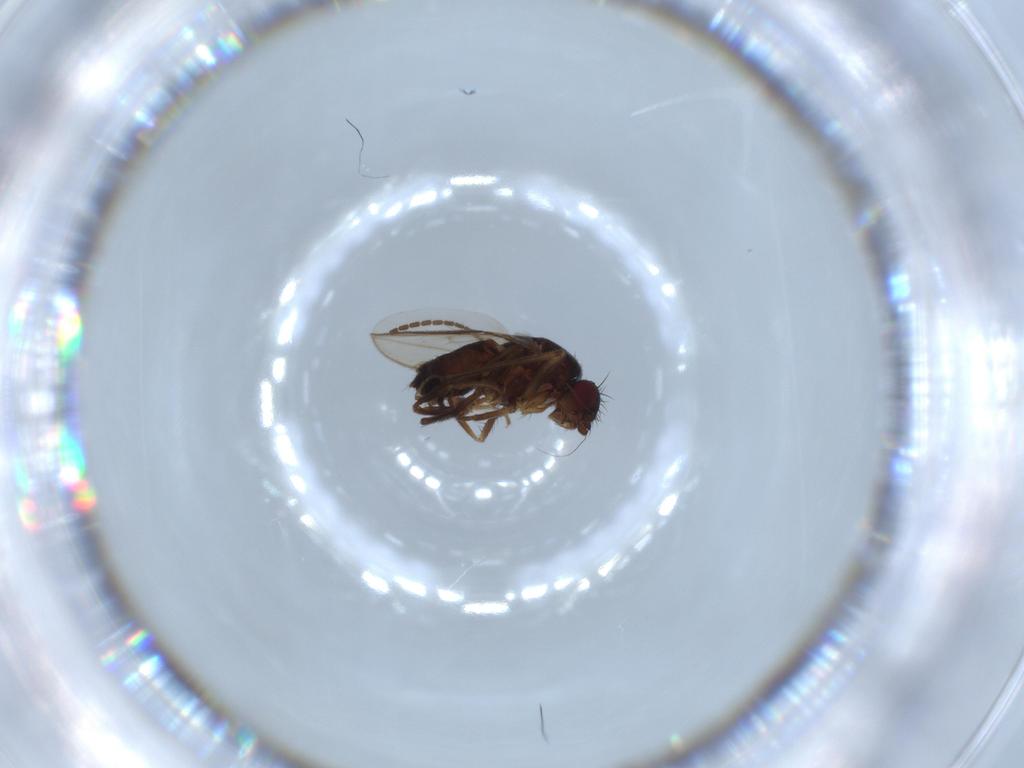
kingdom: Animalia
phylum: Arthropoda
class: Insecta
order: Diptera
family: Sphaeroceridae
